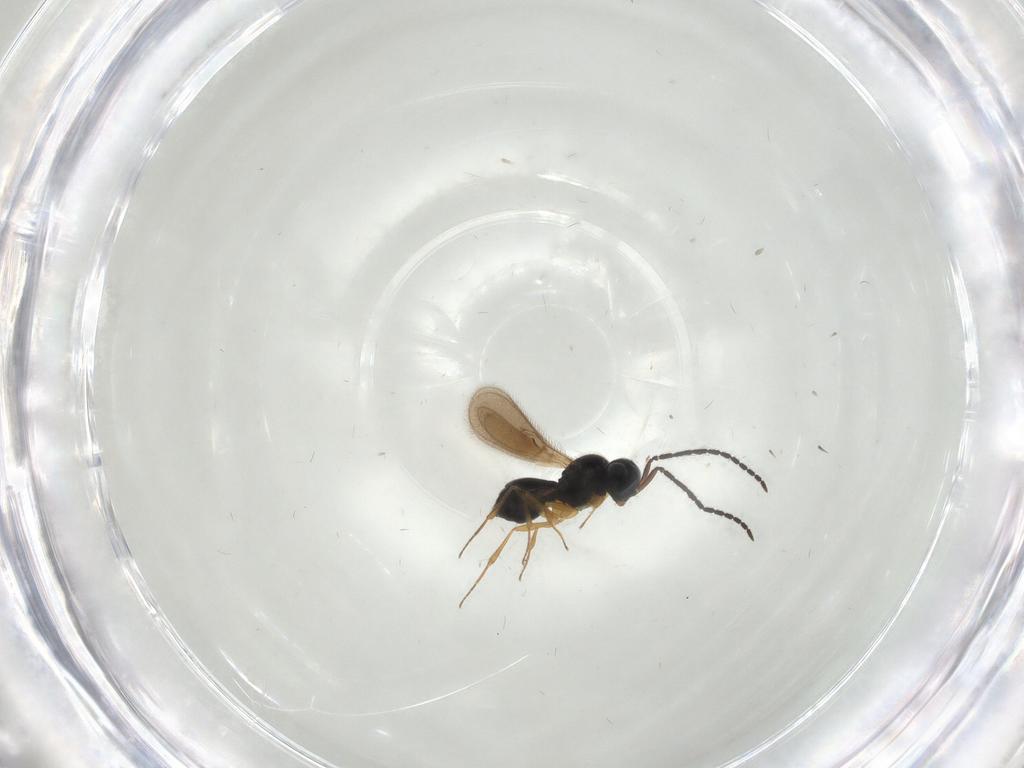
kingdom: Animalia
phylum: Arthropoda
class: Insecta
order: Hymenoptera
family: Scelionidae
